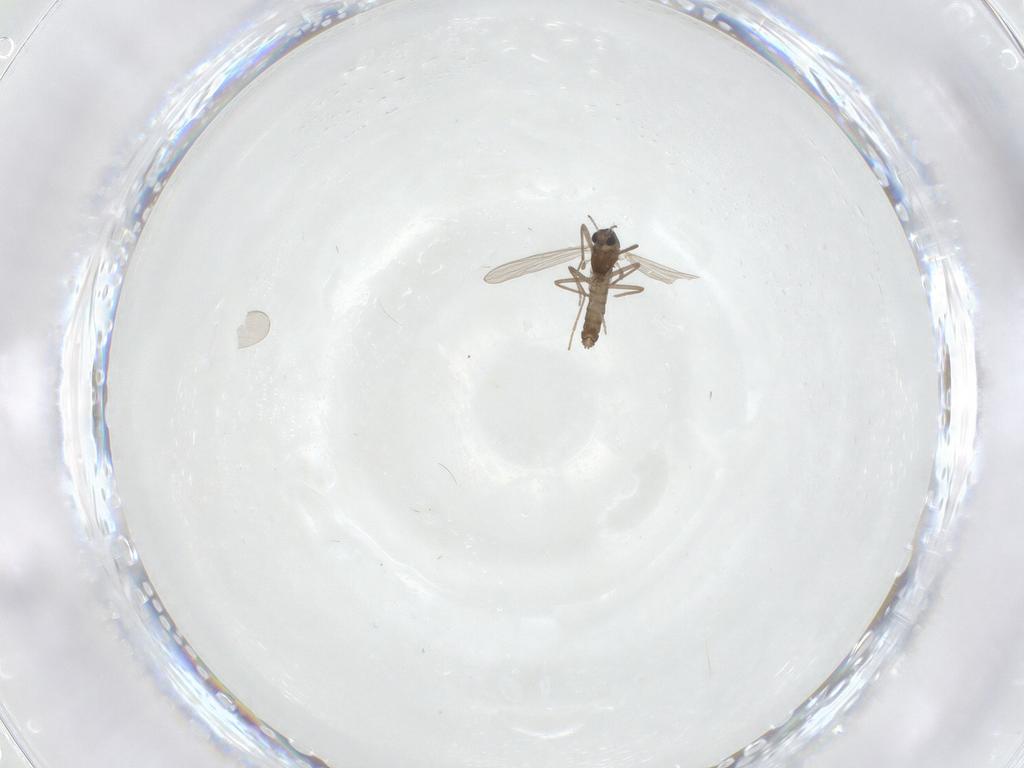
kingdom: Animalia
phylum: Arthropoda
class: Insecta
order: Diptera
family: Chironomidae
